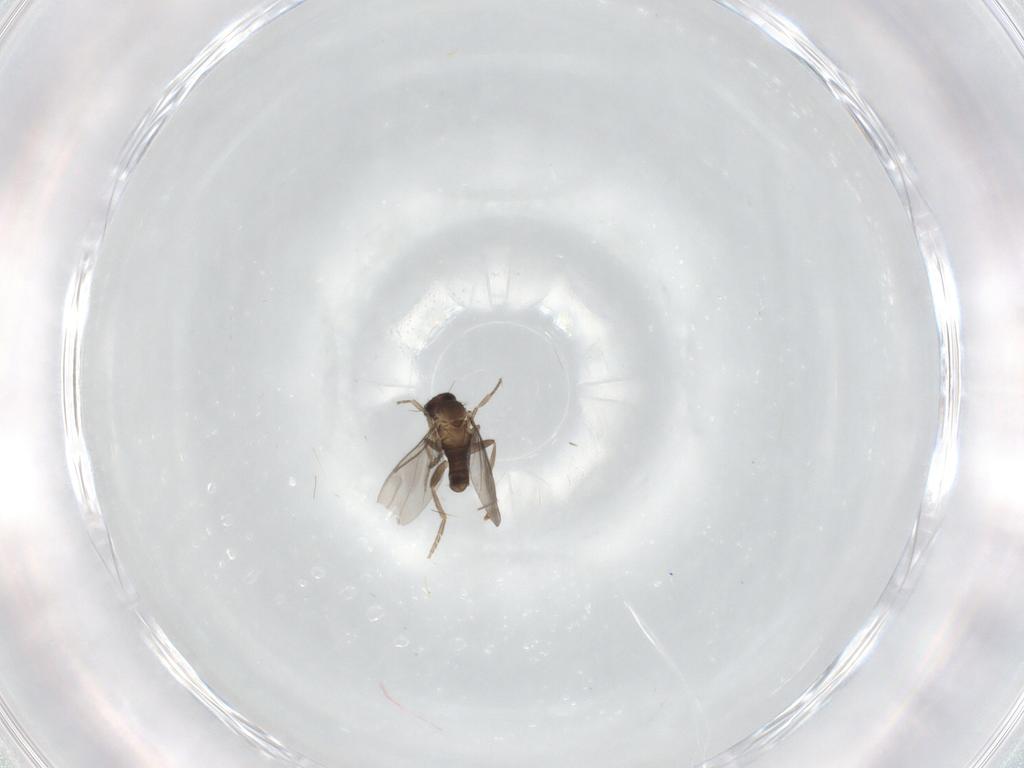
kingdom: Animalia
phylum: Arthropoda
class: Insecta
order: Diptera
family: Ditomyiidae
